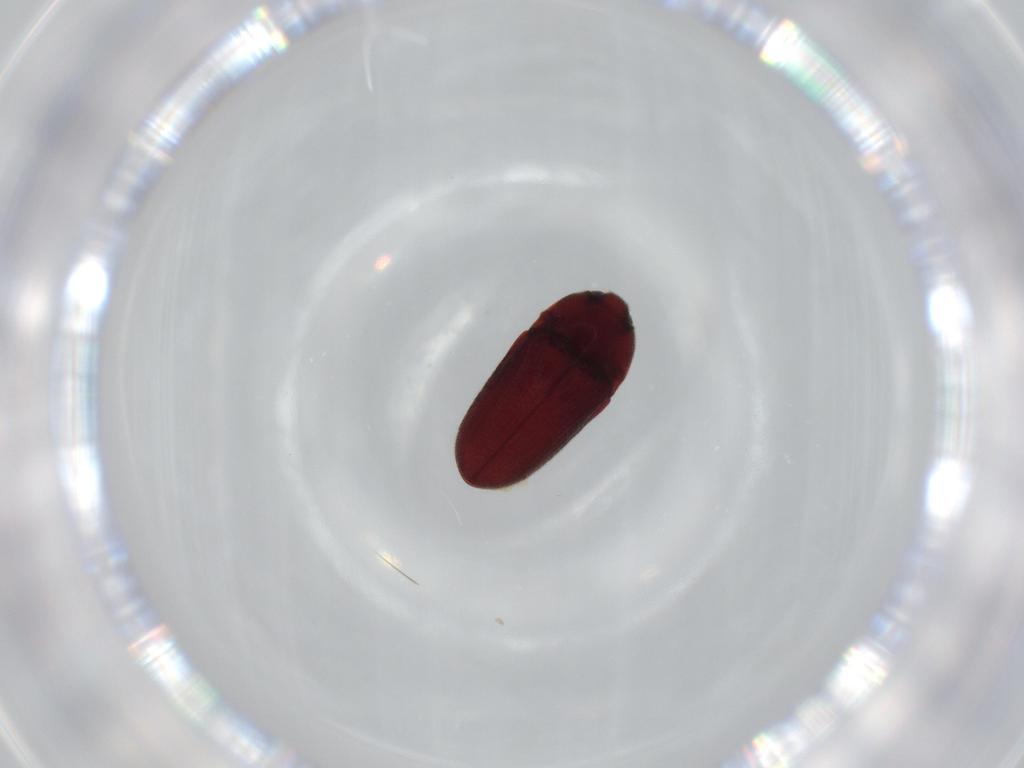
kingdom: Animalia
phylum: Arthropoda
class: Insecta
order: Coleoptera
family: Throscidae
